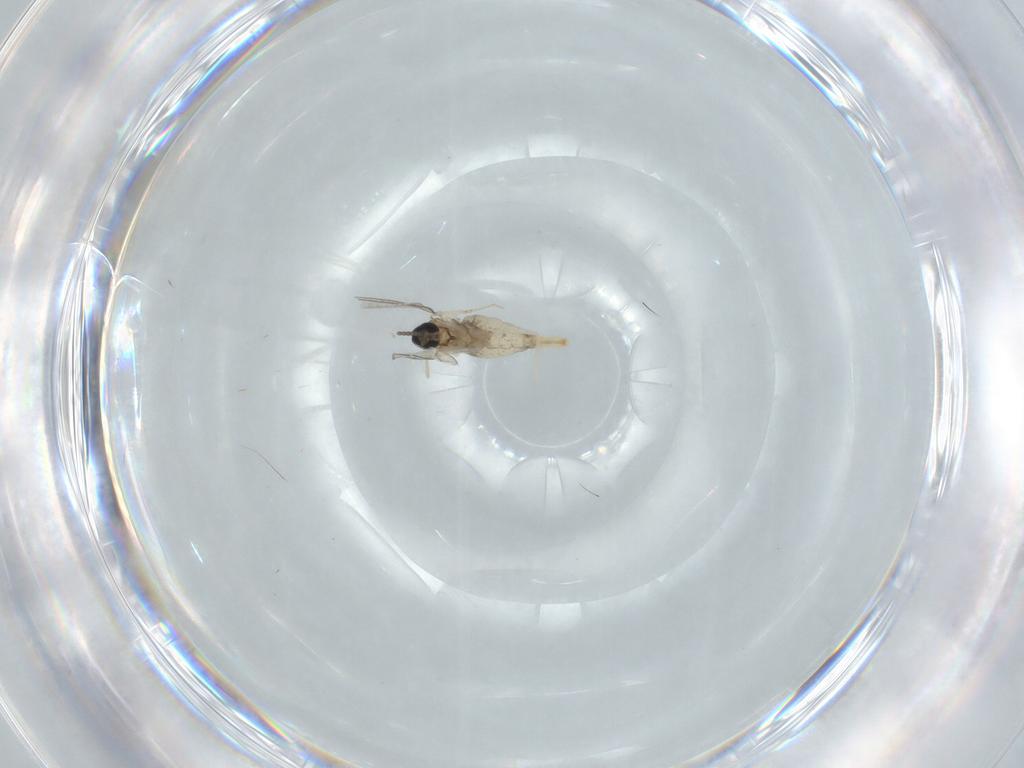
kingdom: Animalia
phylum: Arthropoda
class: Insecta
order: Diptera
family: Cecidomyiidae
